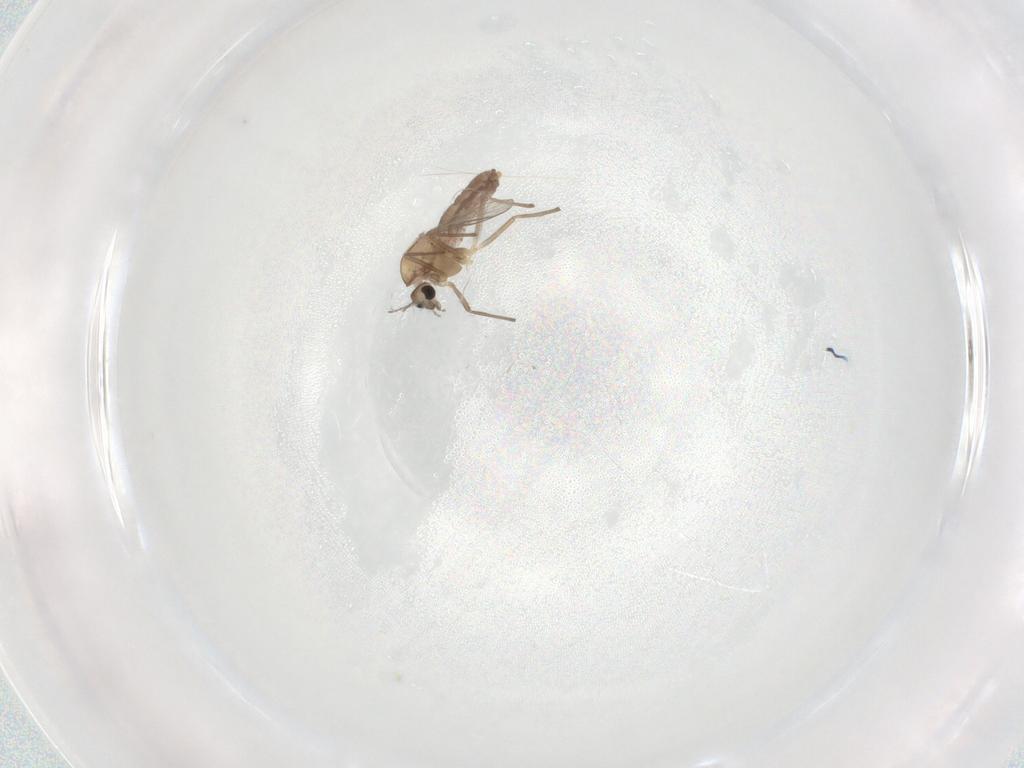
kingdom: Animalia
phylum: Arthropoda
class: Insecta
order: Diptera
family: Chironomidae
